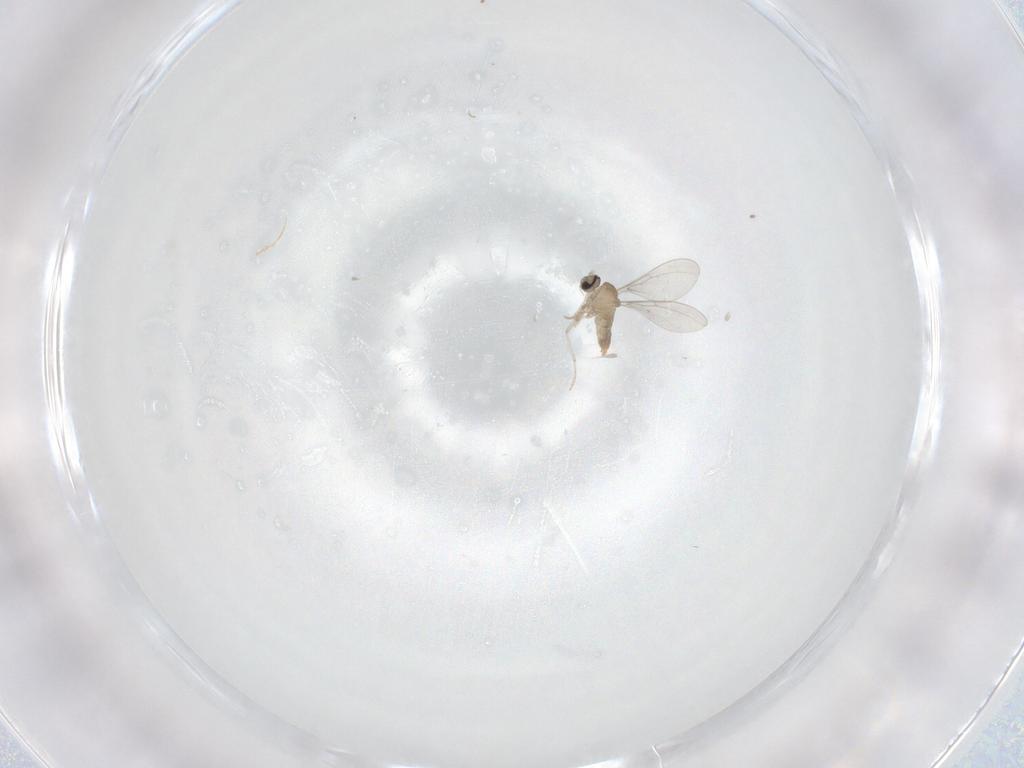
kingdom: Animalia
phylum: Arthropoda
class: Insecta
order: Diptera
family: Cecidomyiidae
